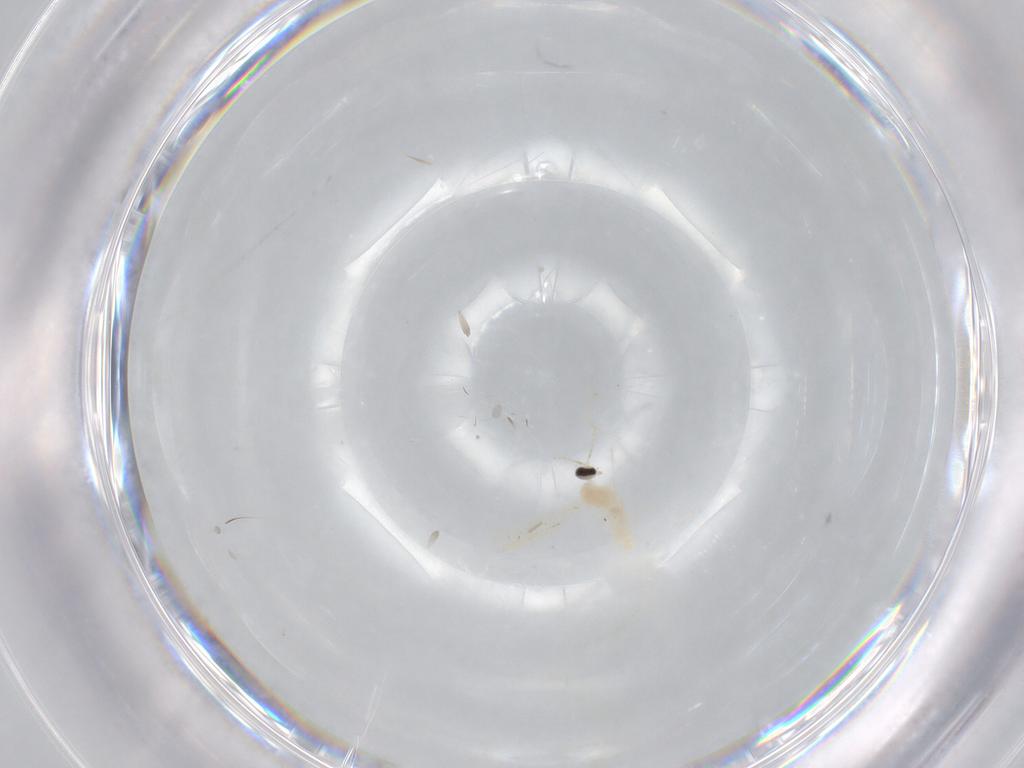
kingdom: Animalia
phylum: Arthropoda
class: Insecta
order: Diptera
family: Cecidomyiidae
